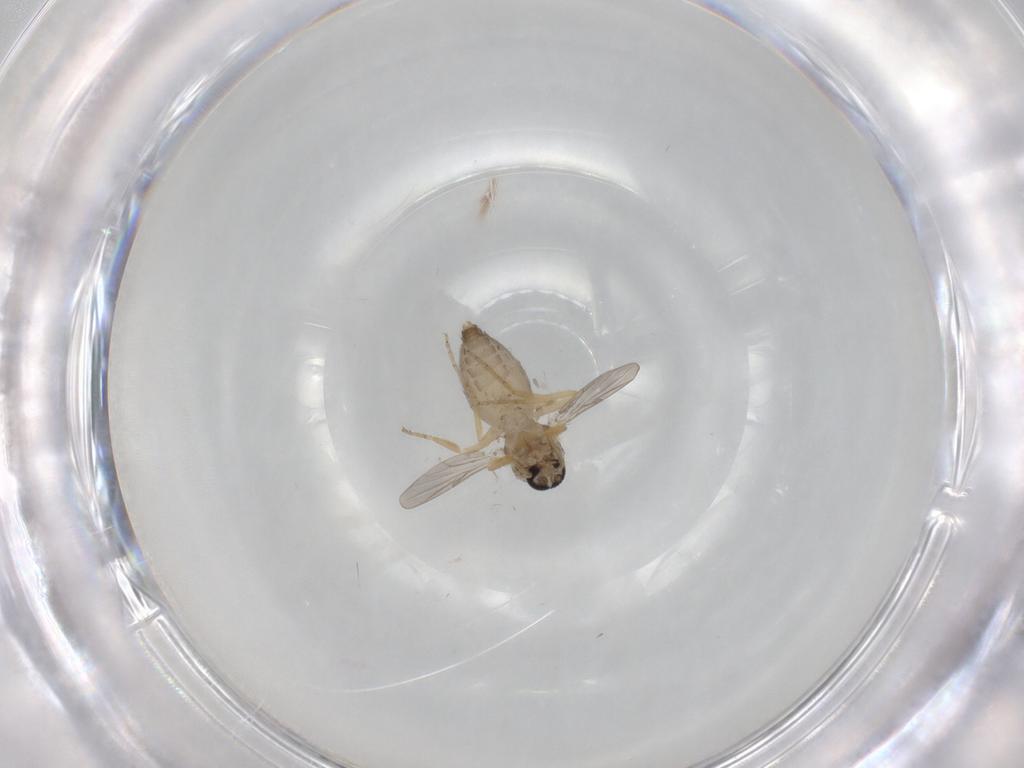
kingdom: Animalia
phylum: Arthropoda
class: Insecta
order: Diptera
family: Ceratopogonidae
